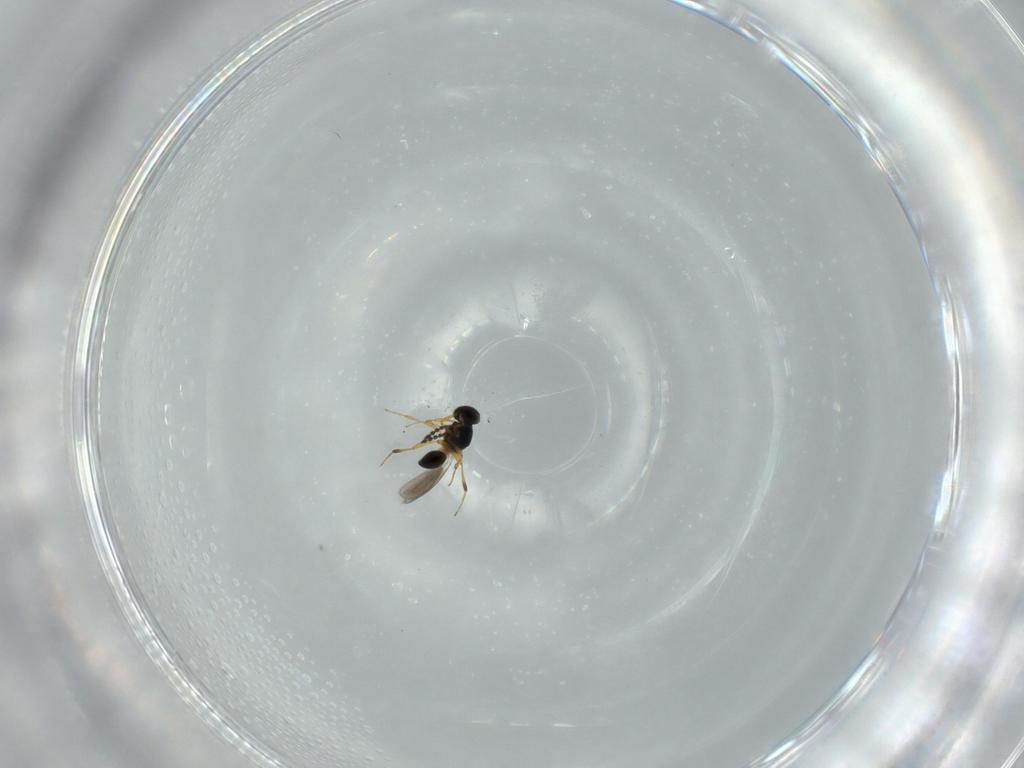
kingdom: Animalia
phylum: Arthropoda
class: Insecta
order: Hymenoptera
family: Platygastridae
